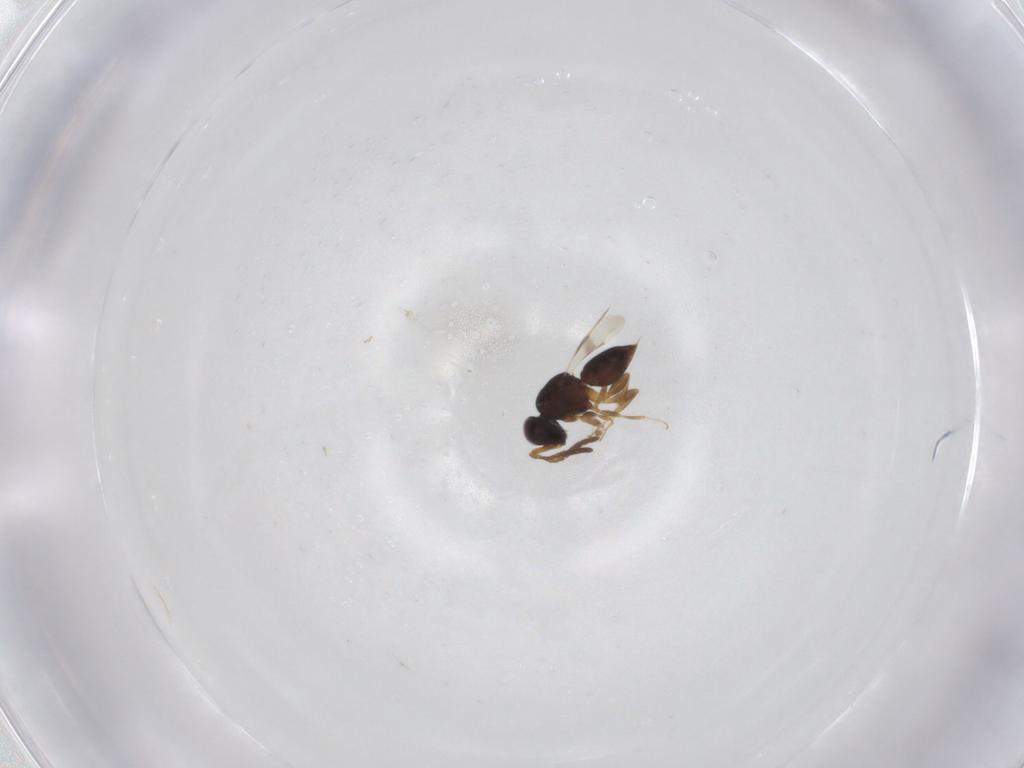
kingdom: Animalia
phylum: Arthropoda
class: Insecta
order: Hymenoptera
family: Ceraphronidae
